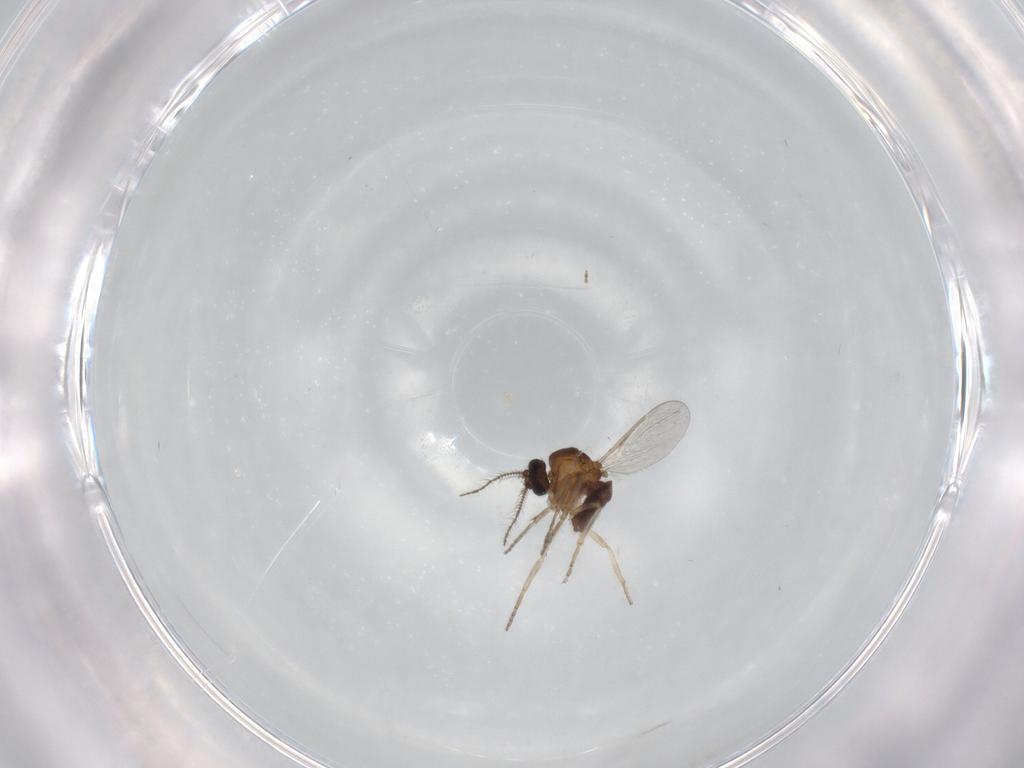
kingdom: Animalia
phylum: Arthropoda
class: Insecta
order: Diptera
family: Ceratopogonidae
